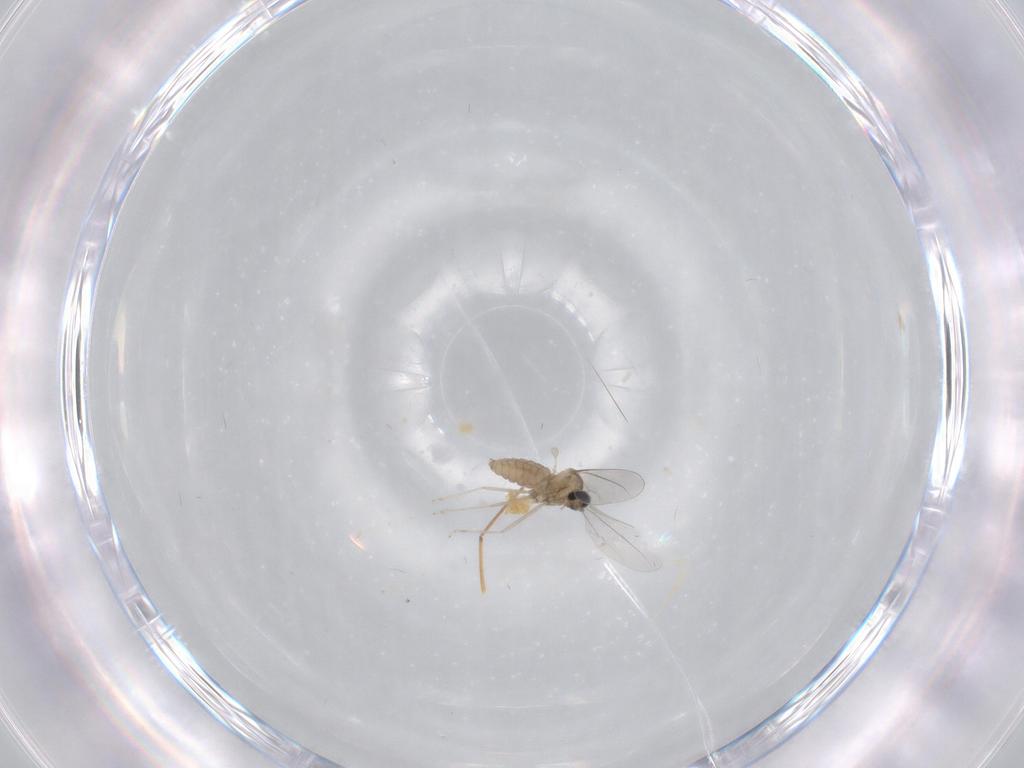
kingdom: Animalia
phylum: Arthropoda
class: Insecta
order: Diptera
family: Cecidomyiidae
